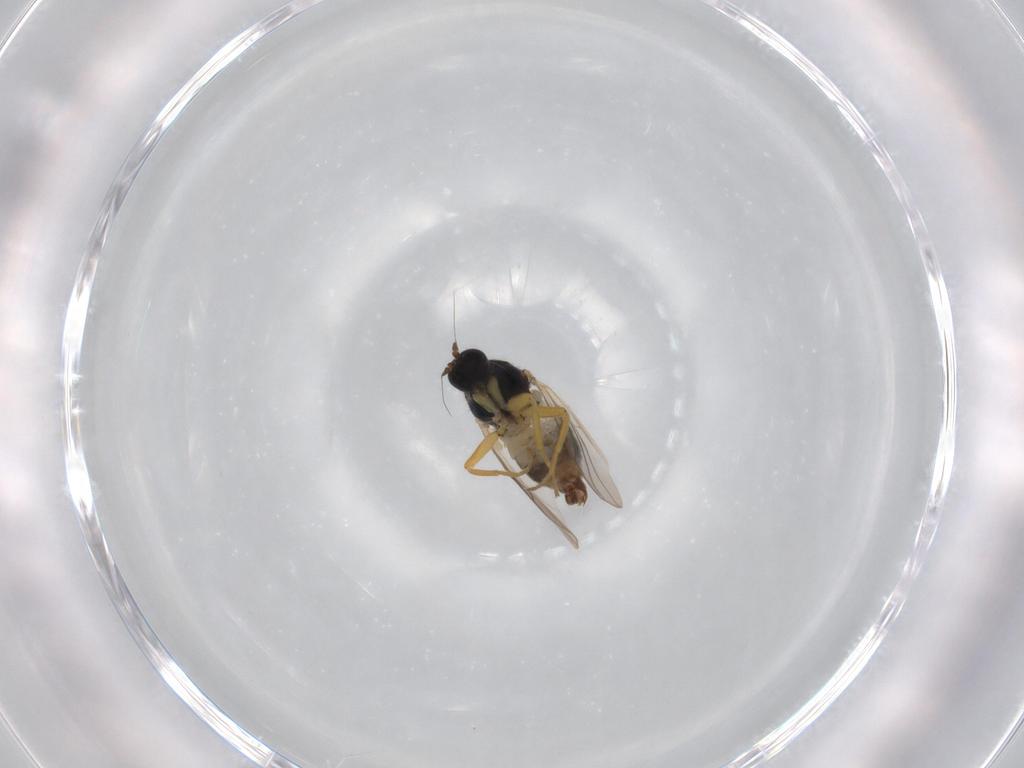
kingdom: Animalia
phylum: Arthropoda
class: Insecta
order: Diptera
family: Hybotidae
